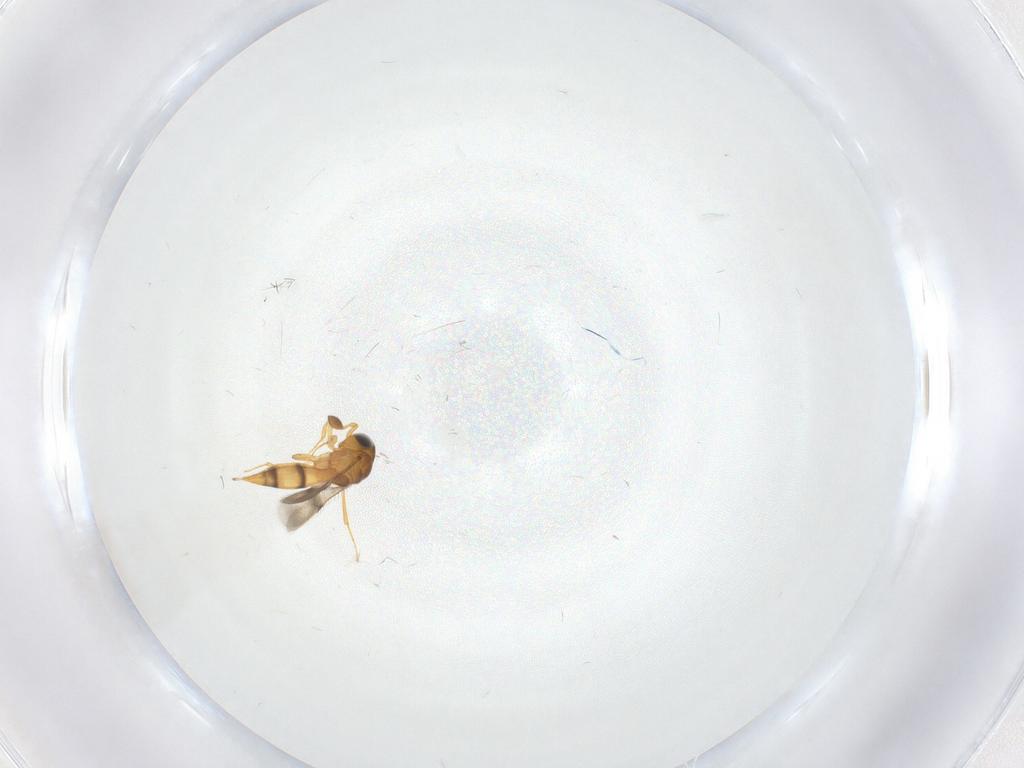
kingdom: Animalia
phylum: Arthropoda
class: Insecta
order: Hymenoptera
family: Scelionidae
